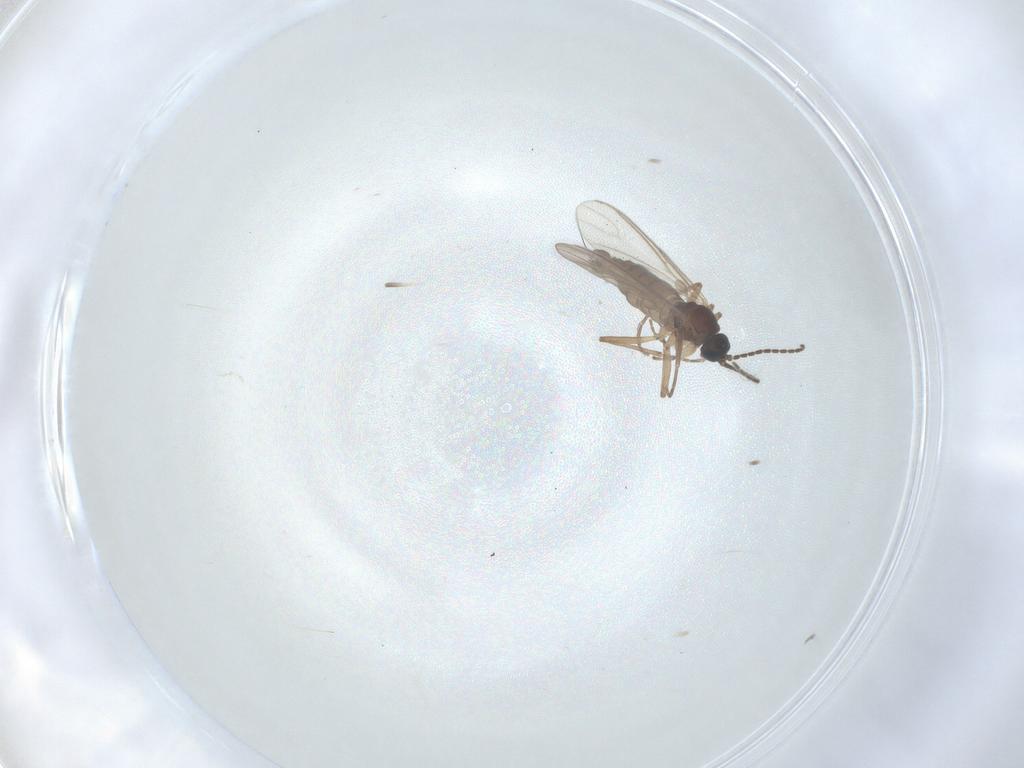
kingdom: Animalia
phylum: Arthropoda
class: Insecta
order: Diptera
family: Sciaridae
